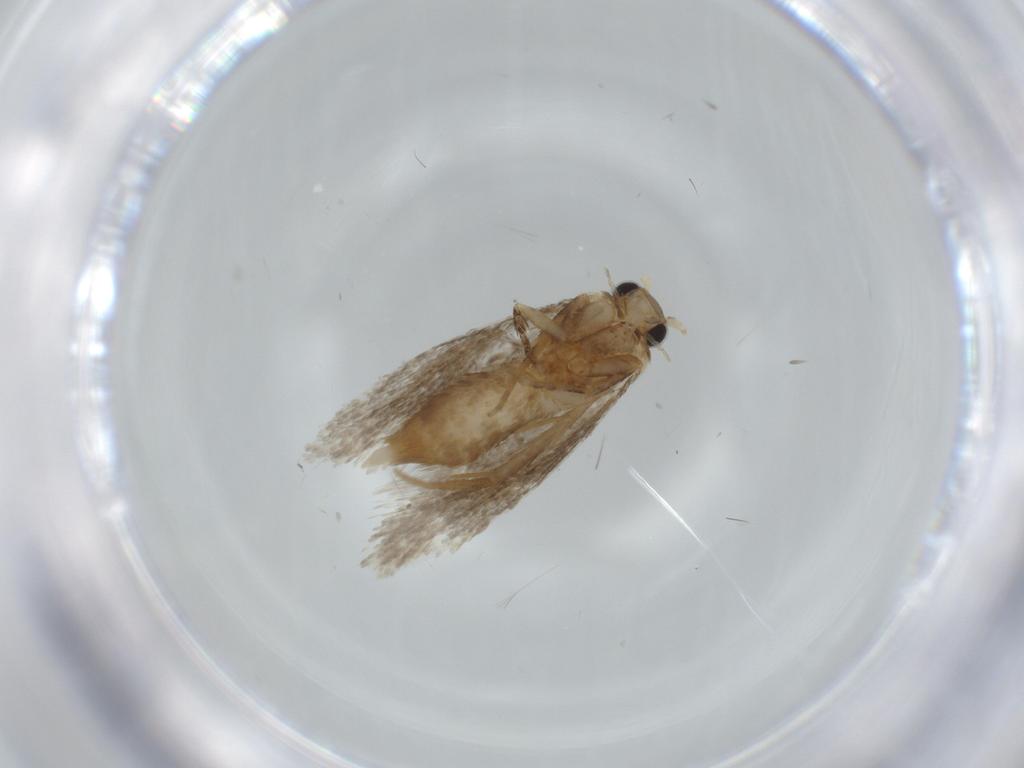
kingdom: Animalia
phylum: Arthropoda
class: Insecta
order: Lepidoptera
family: Tineidae
